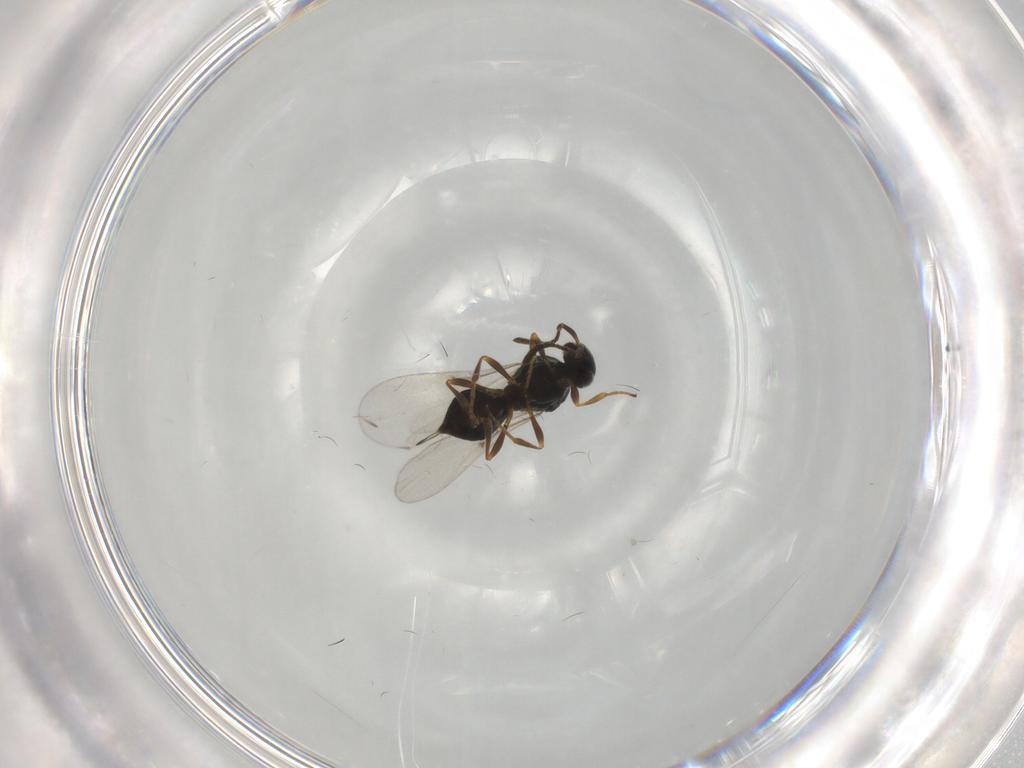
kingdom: Animalia
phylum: Arthropoda
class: Insecta
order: Hymenoptera
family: Platygastridae
